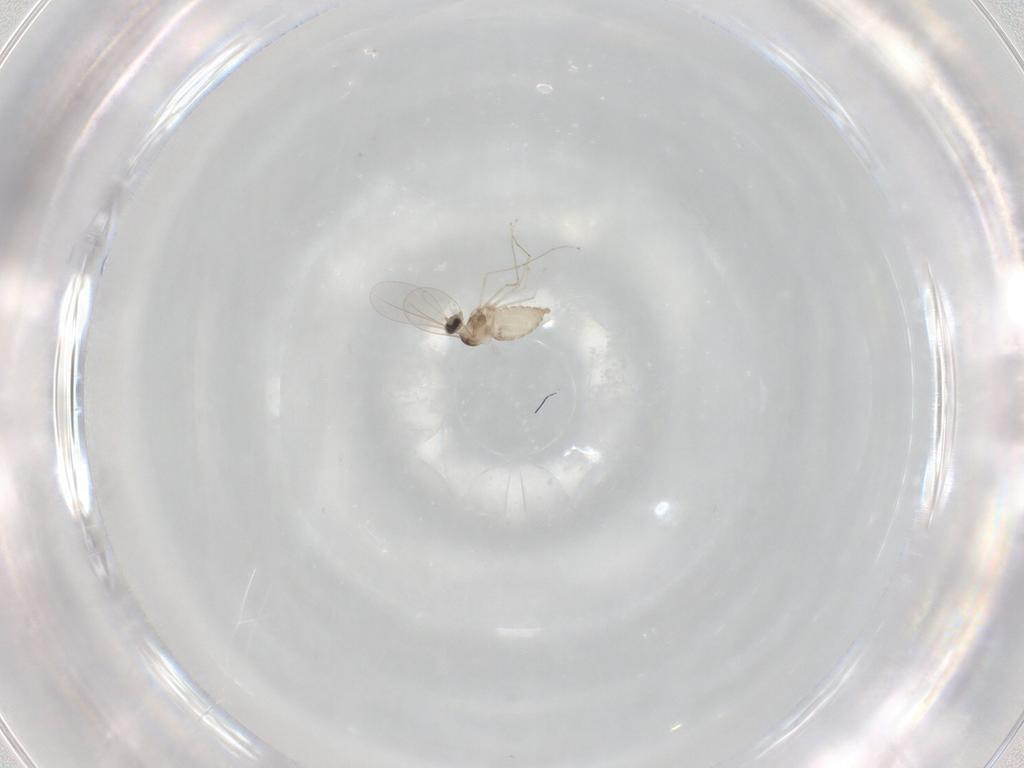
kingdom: Animalia
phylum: Arthropoda
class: Insecta
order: Diptera
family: Cecidomyiidae
